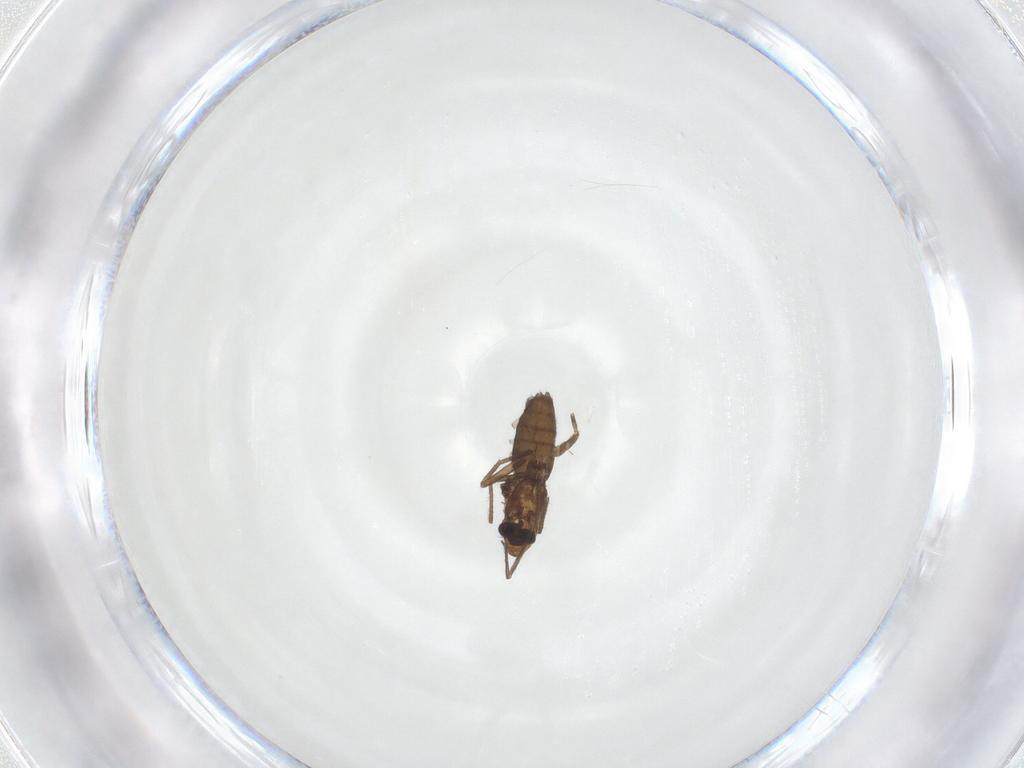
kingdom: Animalia
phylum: Arthropoda
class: Insecta
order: Diptera
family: Chironomidae
